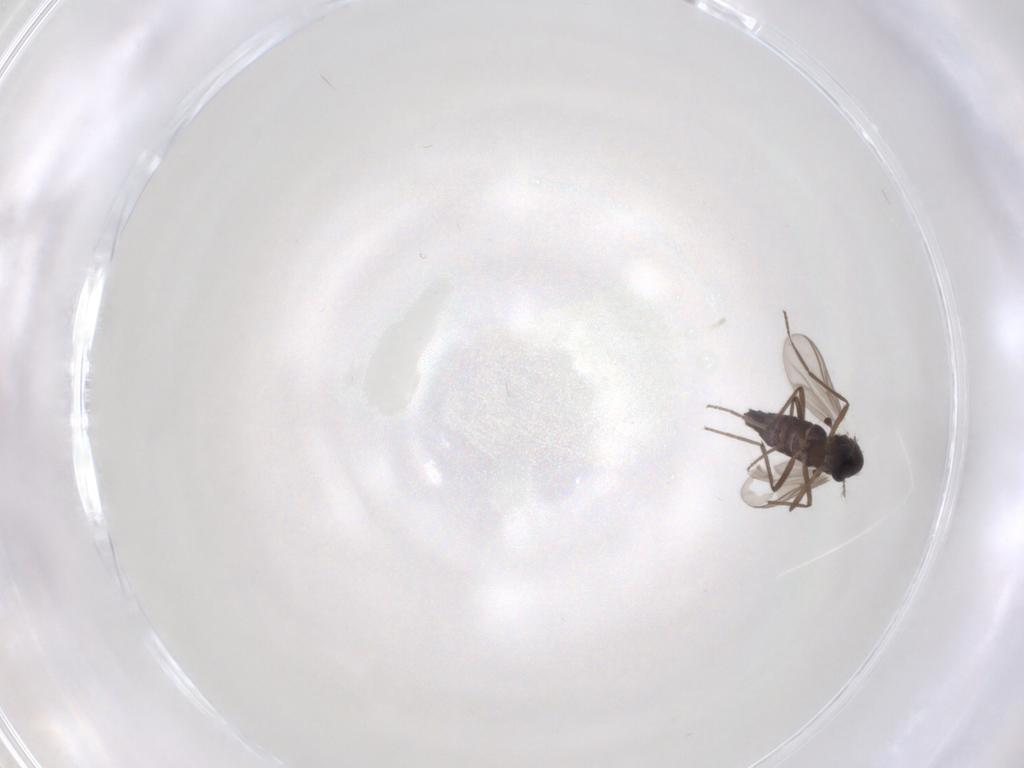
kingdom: Animalia
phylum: Arthropoda
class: Insecta
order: Diptera
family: Chironomidae
